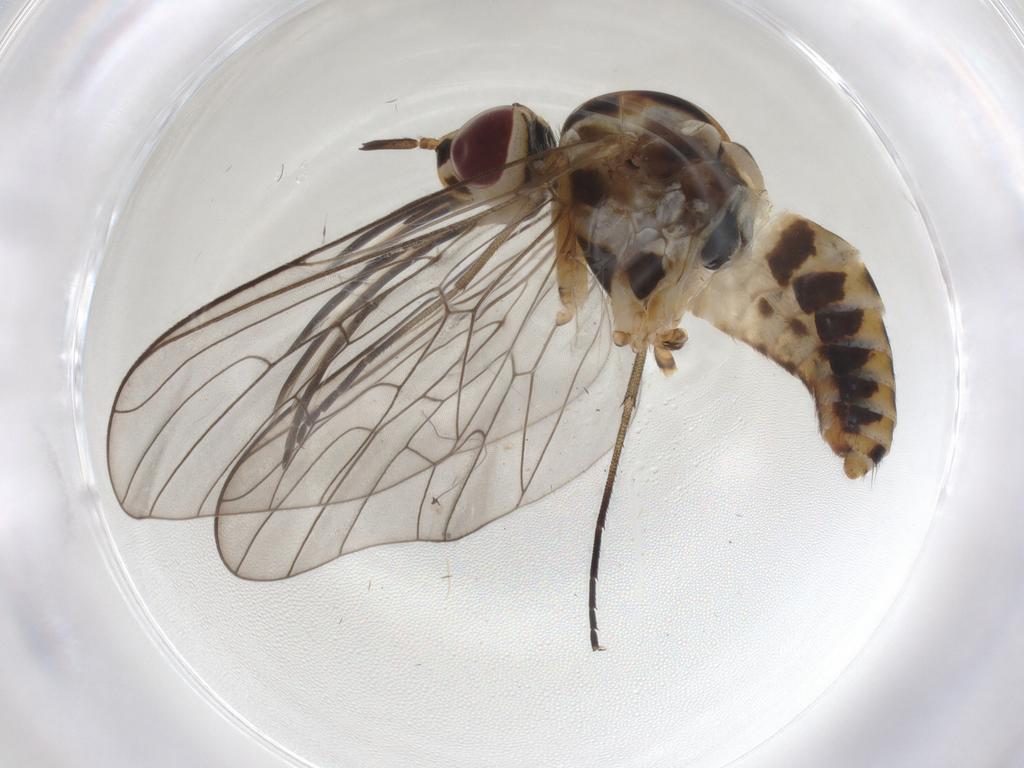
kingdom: Animalia
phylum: Arthropoda
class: Insecta
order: Diptera
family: Bombyliidae
